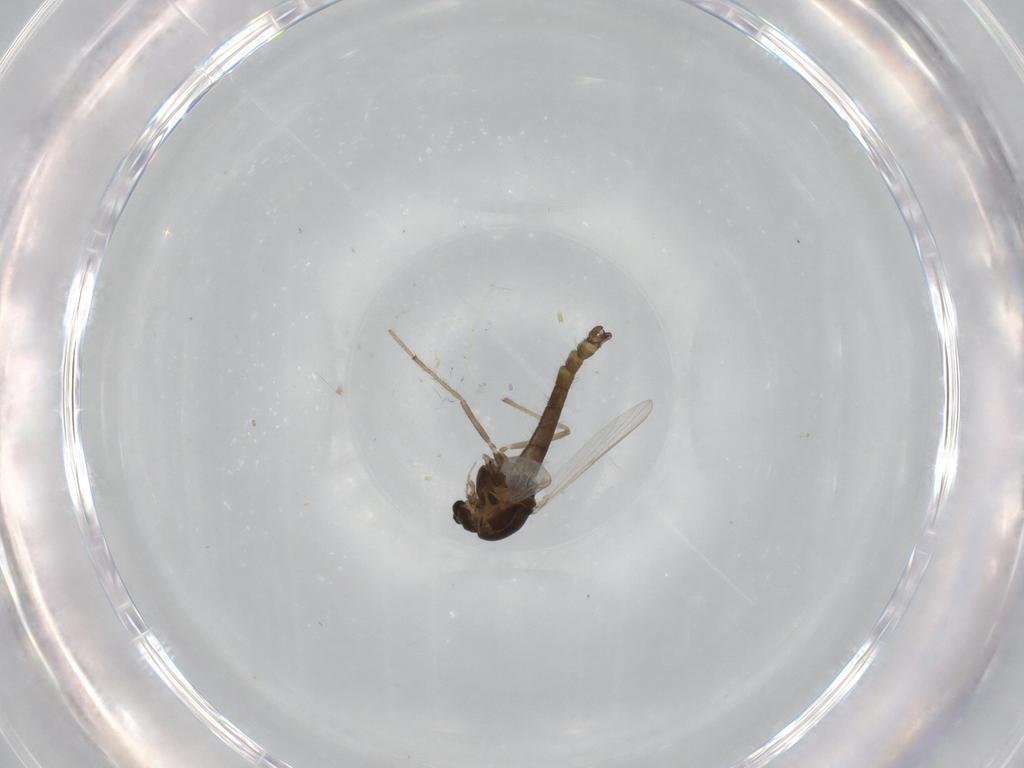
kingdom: Animalia
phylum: Arthropoda
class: Insecta
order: Diptera
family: Chironomidae
